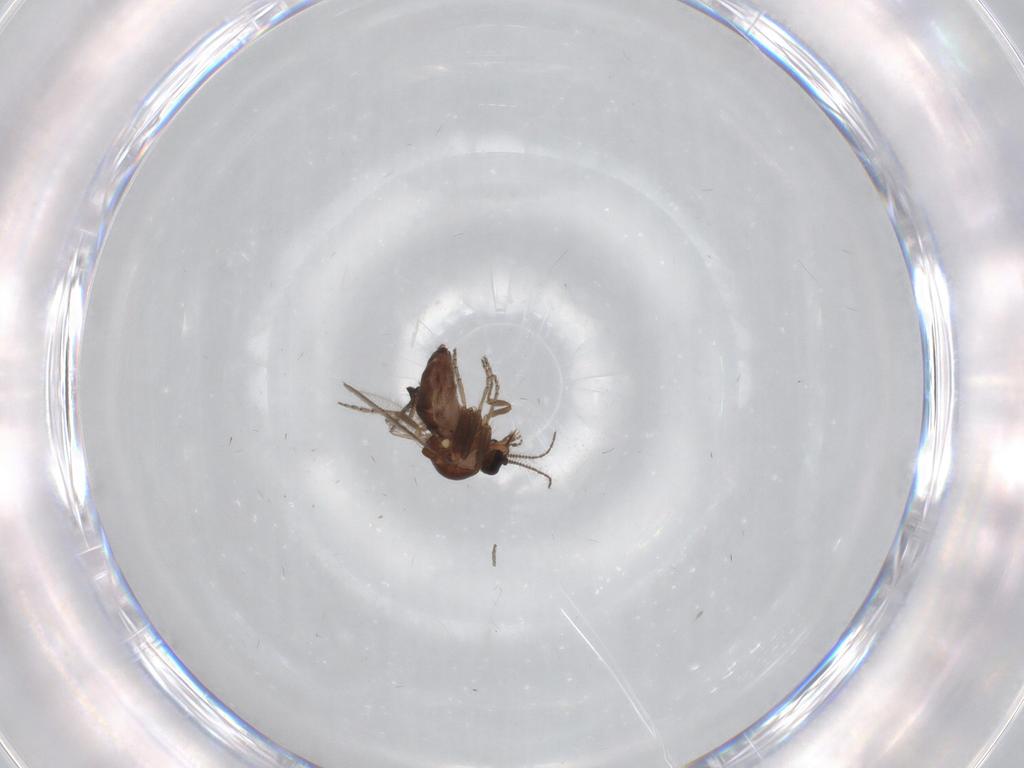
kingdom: Animalia
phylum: Arthropoda
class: Insecta
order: Diptera
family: Ceratopogonidae
